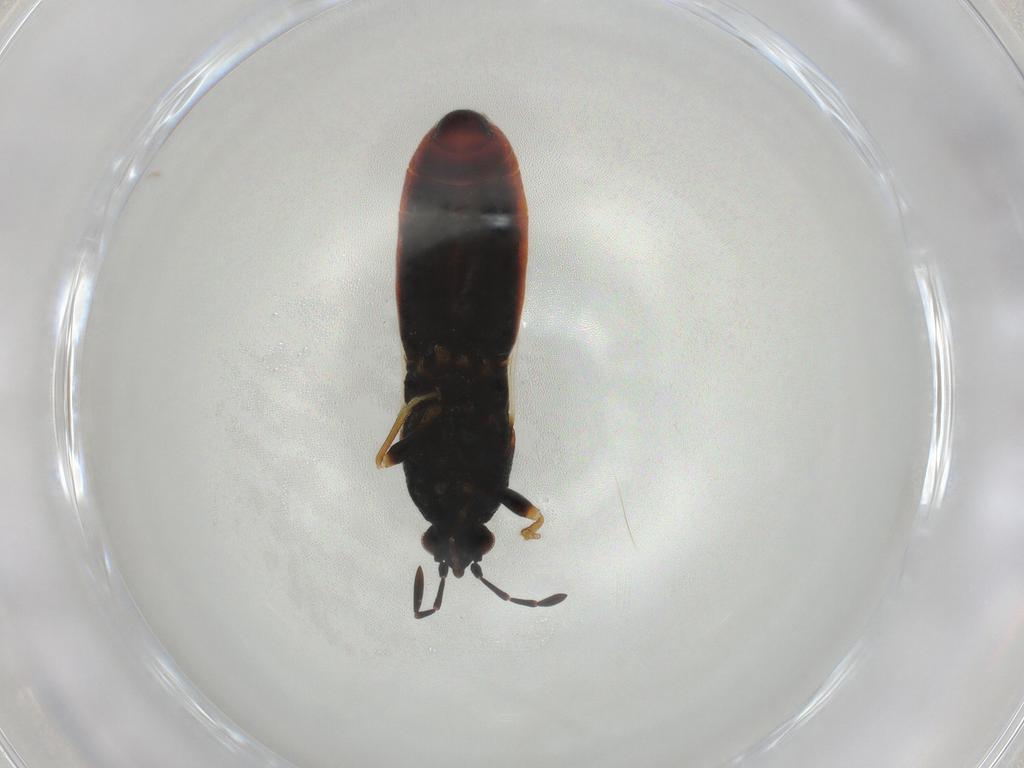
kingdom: Animalia
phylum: Arthropoda
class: Insecta
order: Hemiptera
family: Blissidae
